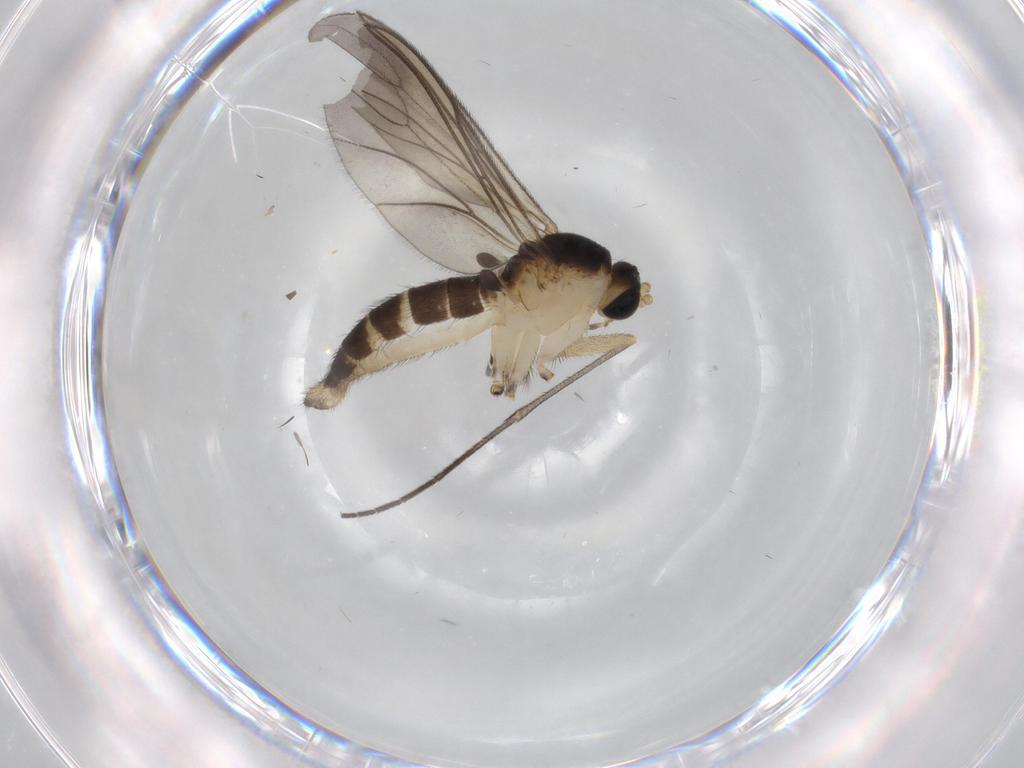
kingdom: Animalia
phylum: Arthropoda
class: Insecta
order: Diptera
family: Sciaridae
